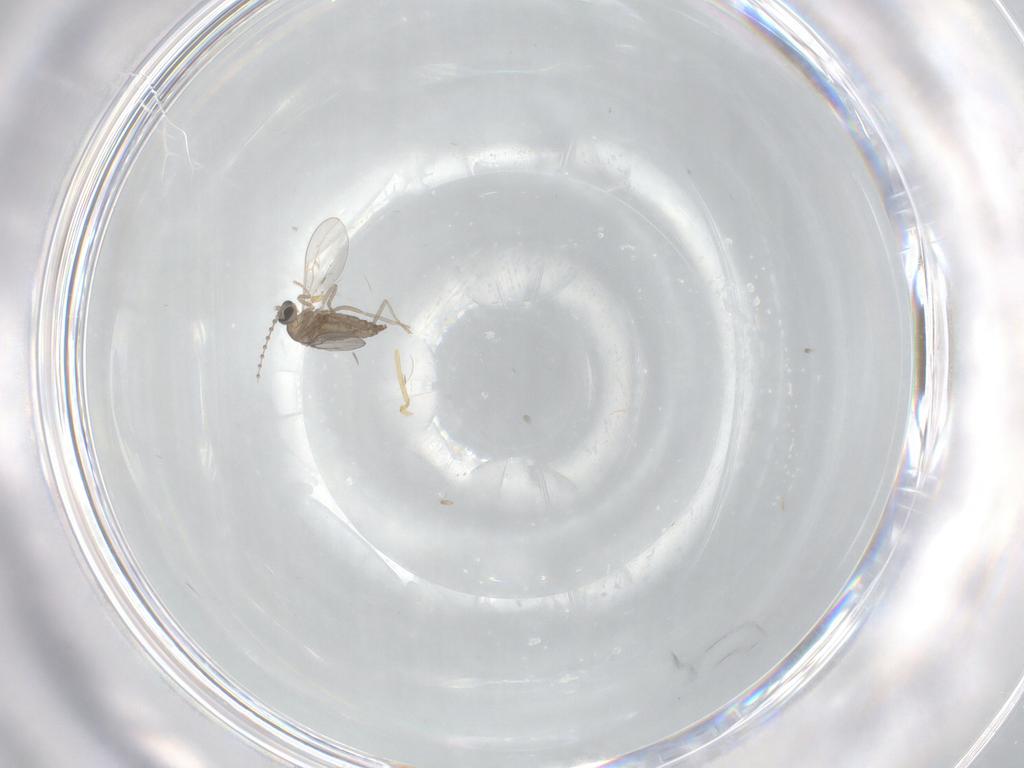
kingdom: Animalia
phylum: Arthropoda
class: Insecta
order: Diptera
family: Cecidomyiidae
